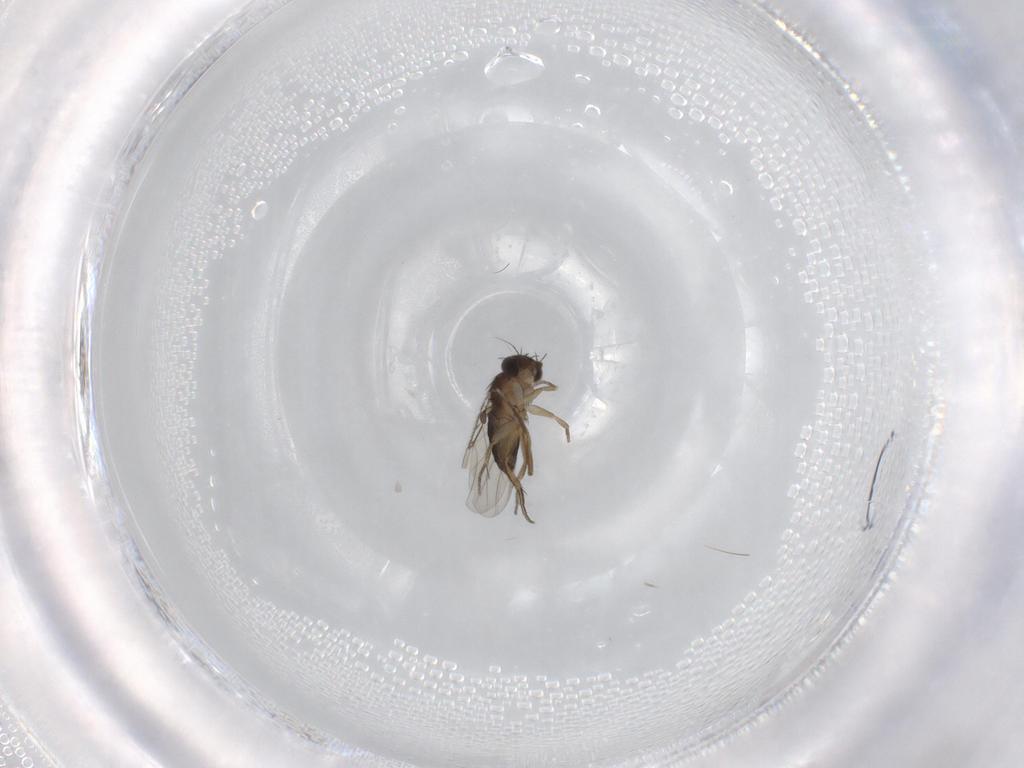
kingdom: Animalia
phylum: Arthropoda
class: Insecta
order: Diptera
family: Phoridae
